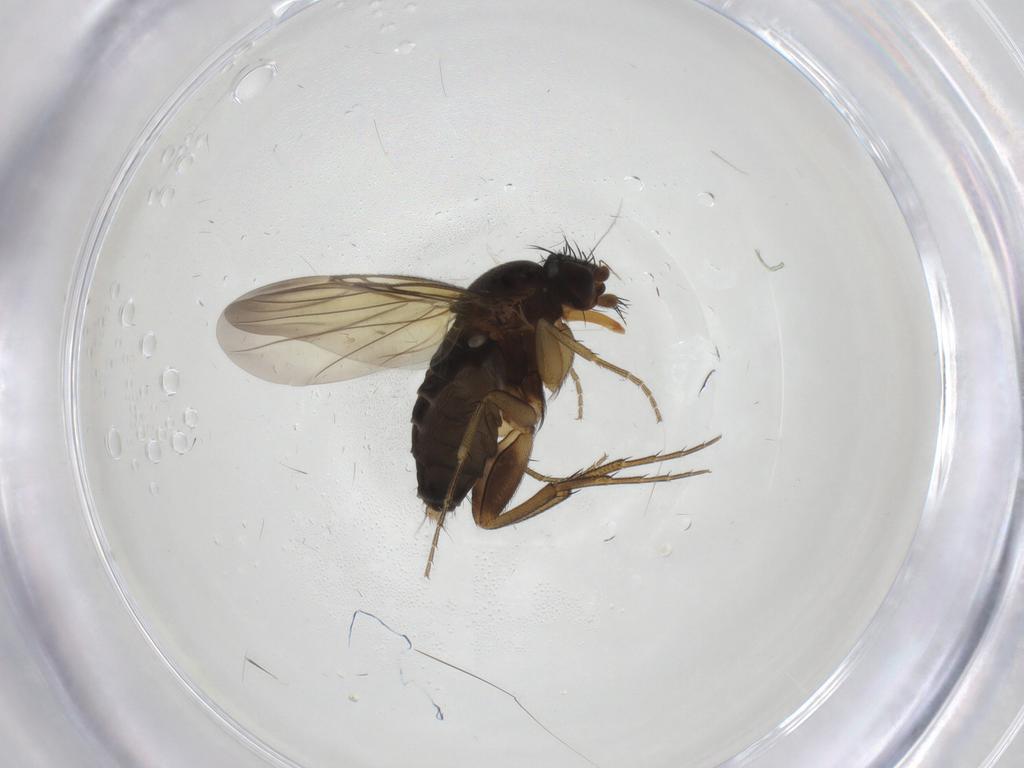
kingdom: Animalia
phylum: Arthropoda
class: Insecta
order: Diptera
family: Phoridae
